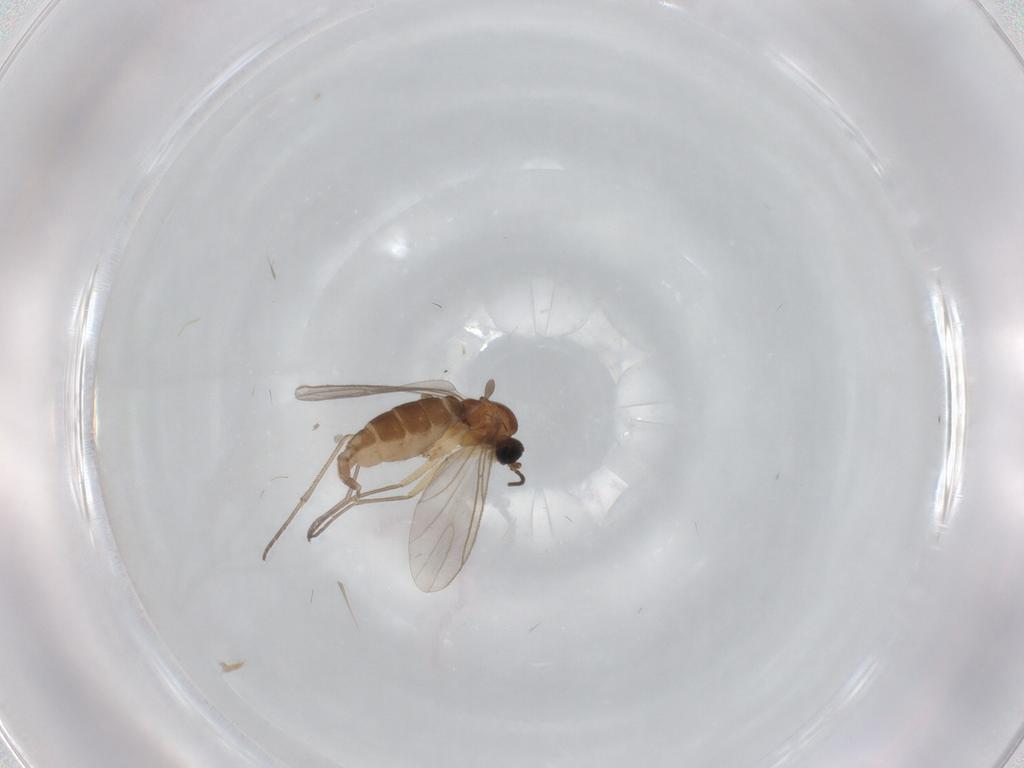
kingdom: Animalia
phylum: Arthropoda
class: Insecta
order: Diptera
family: Sciaridae
